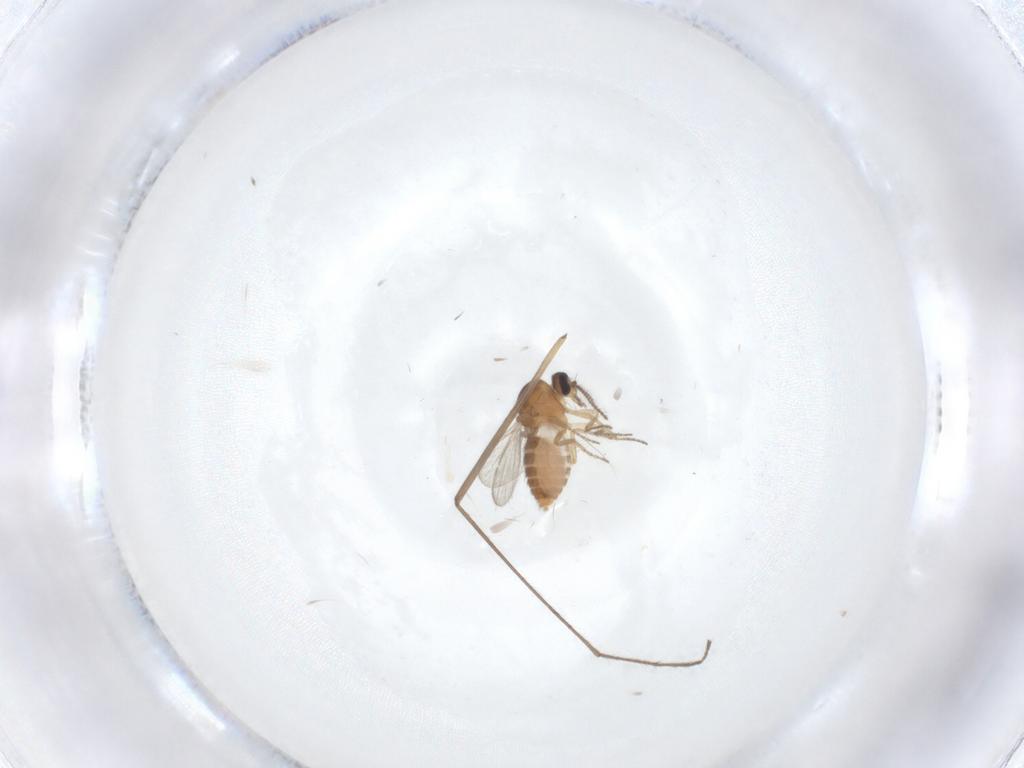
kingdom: Animalia
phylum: Arthropoda
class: Insecta
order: Diptera
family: Ceratopogonidae
